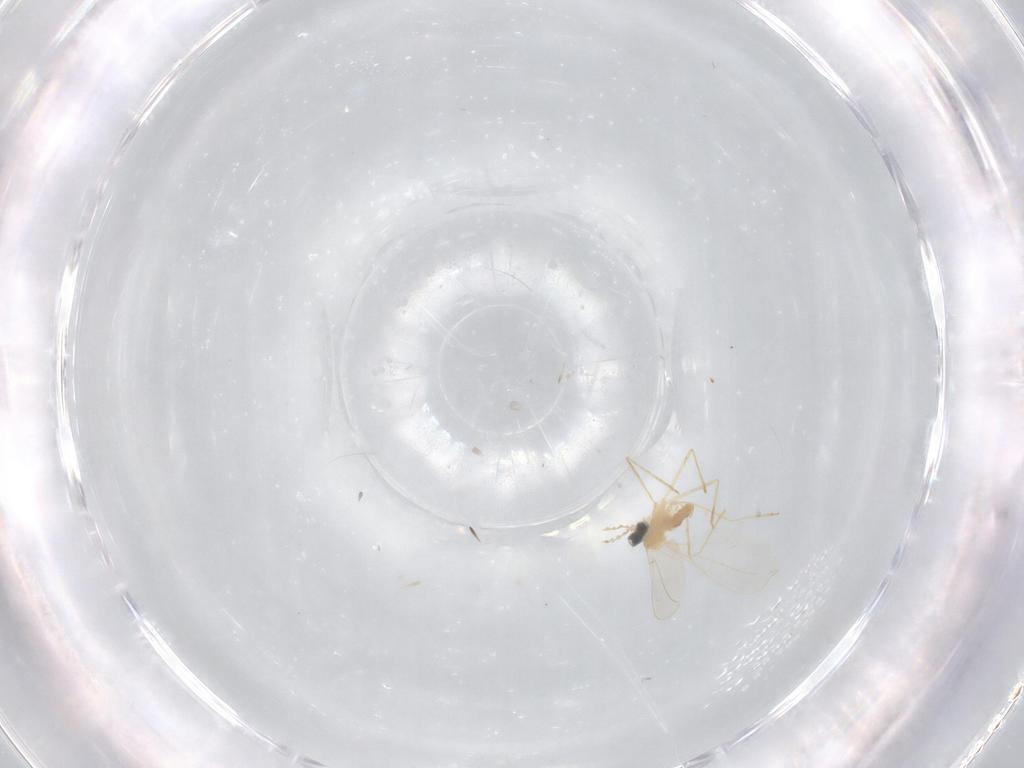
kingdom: Animalia
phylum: Arthropoda
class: Insecta
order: Diptera
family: Chironomidae
